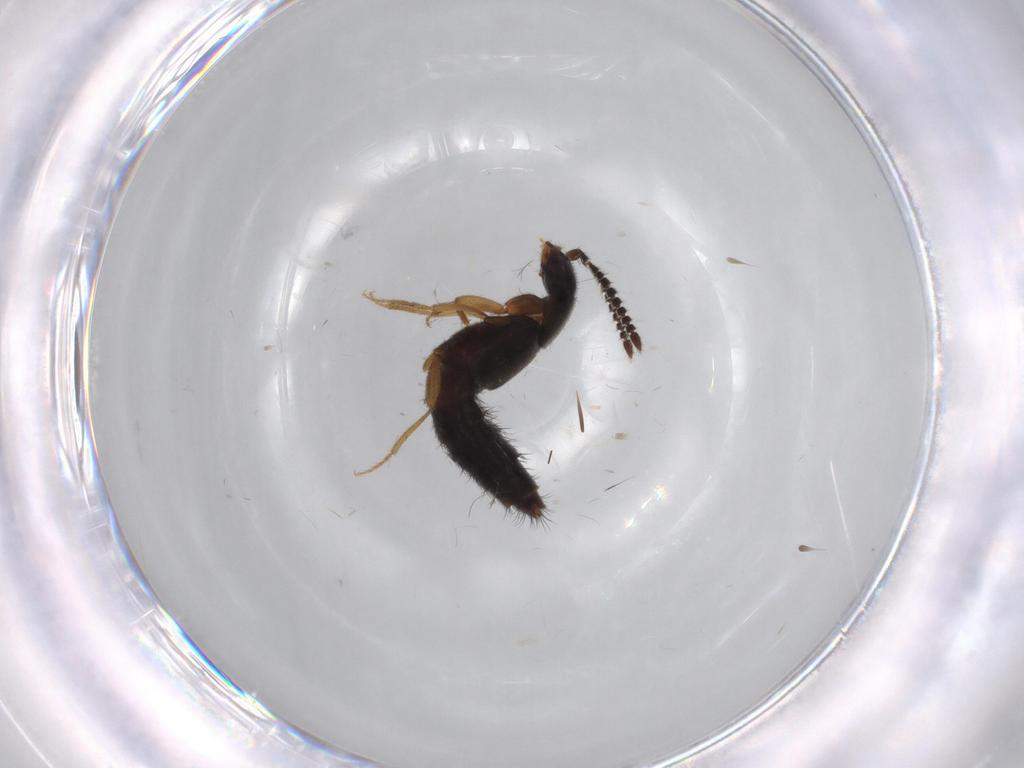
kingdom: Animalia
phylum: Arthropoda
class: Insecta
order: Coleoptera
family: Staphylinidae
